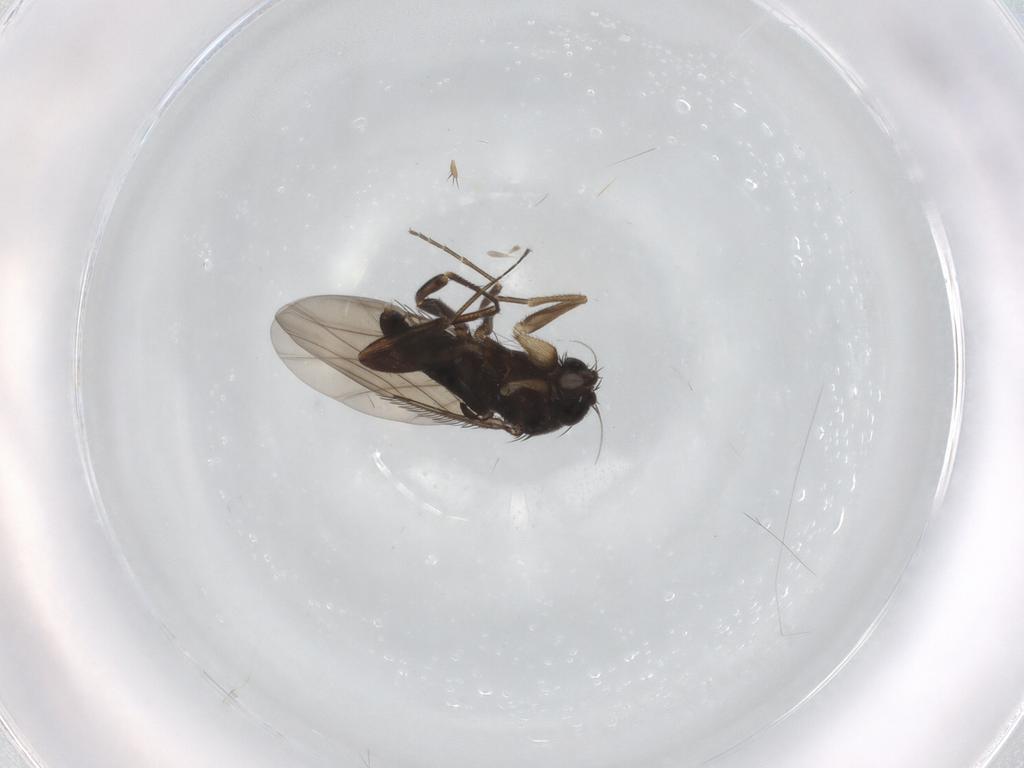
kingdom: Animalia
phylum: Arthropoda
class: Insecta
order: Diptera
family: Phoridae
